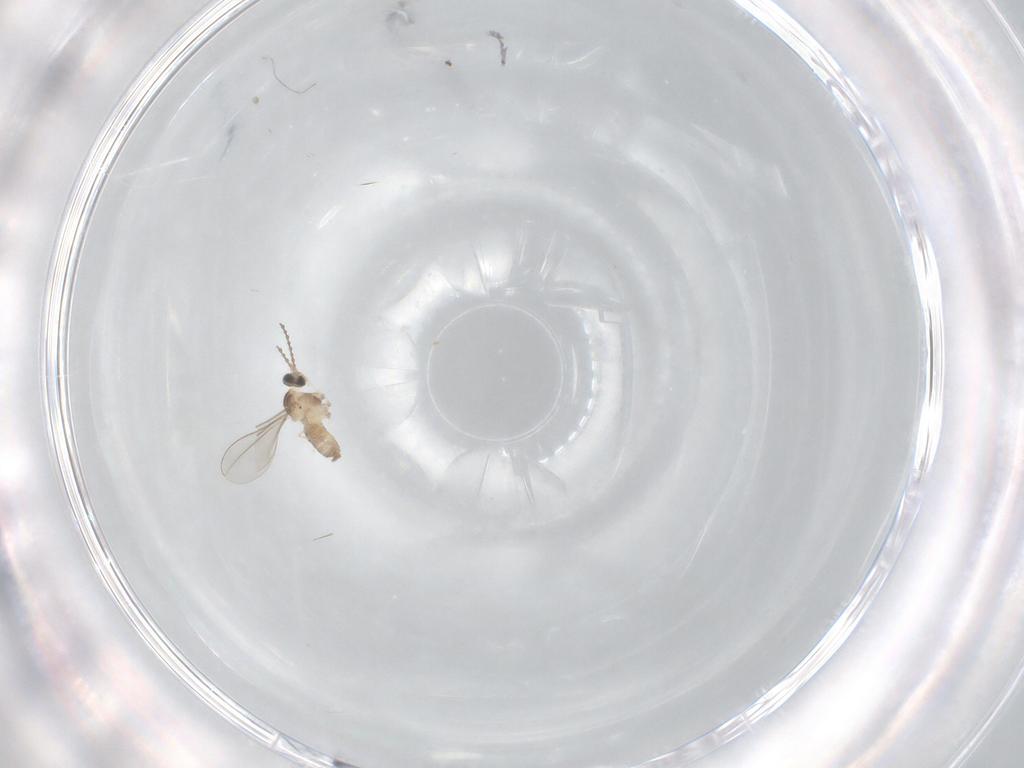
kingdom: Animalia
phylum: Arthropoda
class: Insecta
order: Diptera
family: Cecidomyiidae
